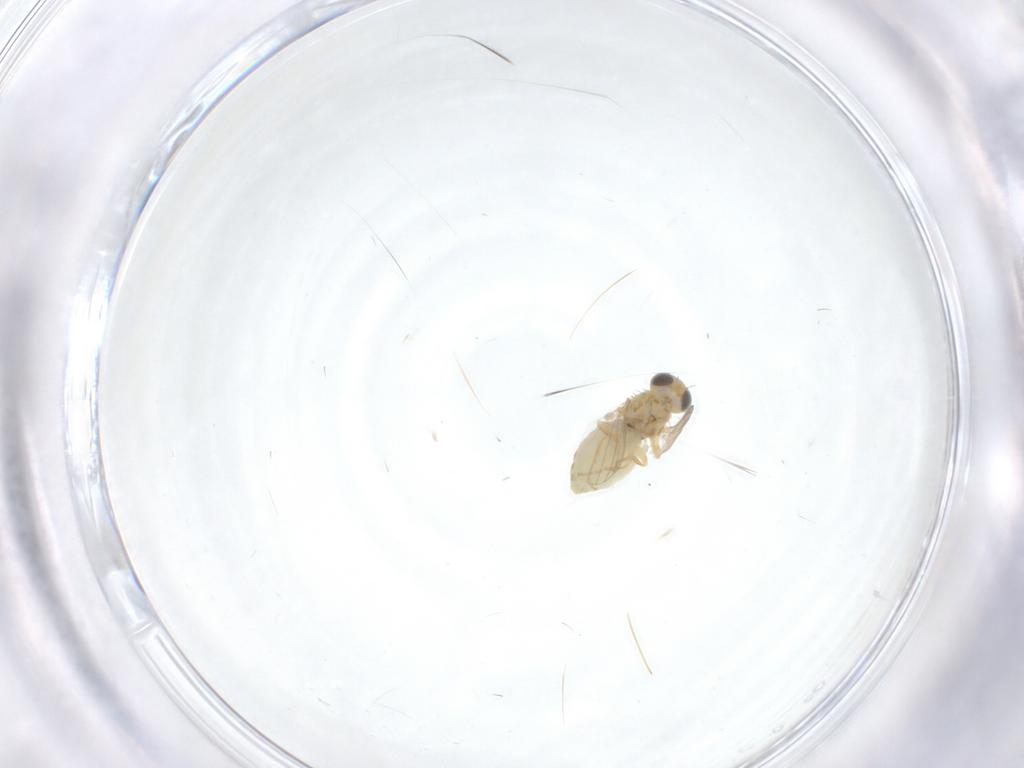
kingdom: Animalia
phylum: Arthropoda
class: Insecta
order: Diptera
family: Chyromyidae
